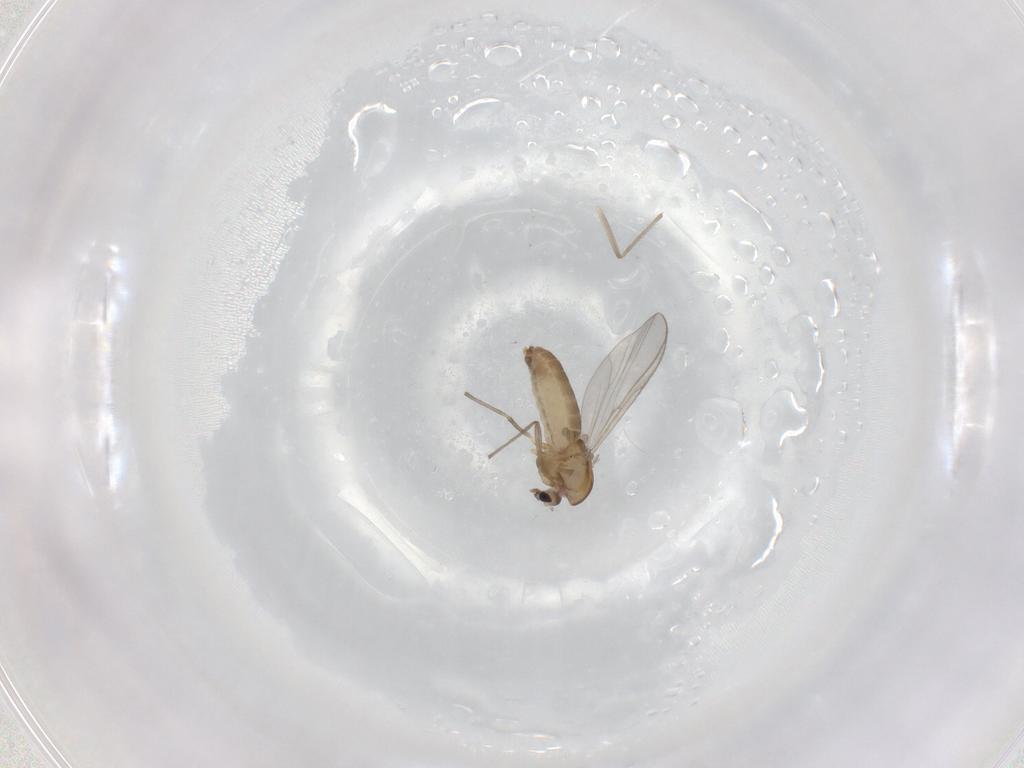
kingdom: Animalia
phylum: Arthropoda
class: Insecta
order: Diptera
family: Chironomidae
